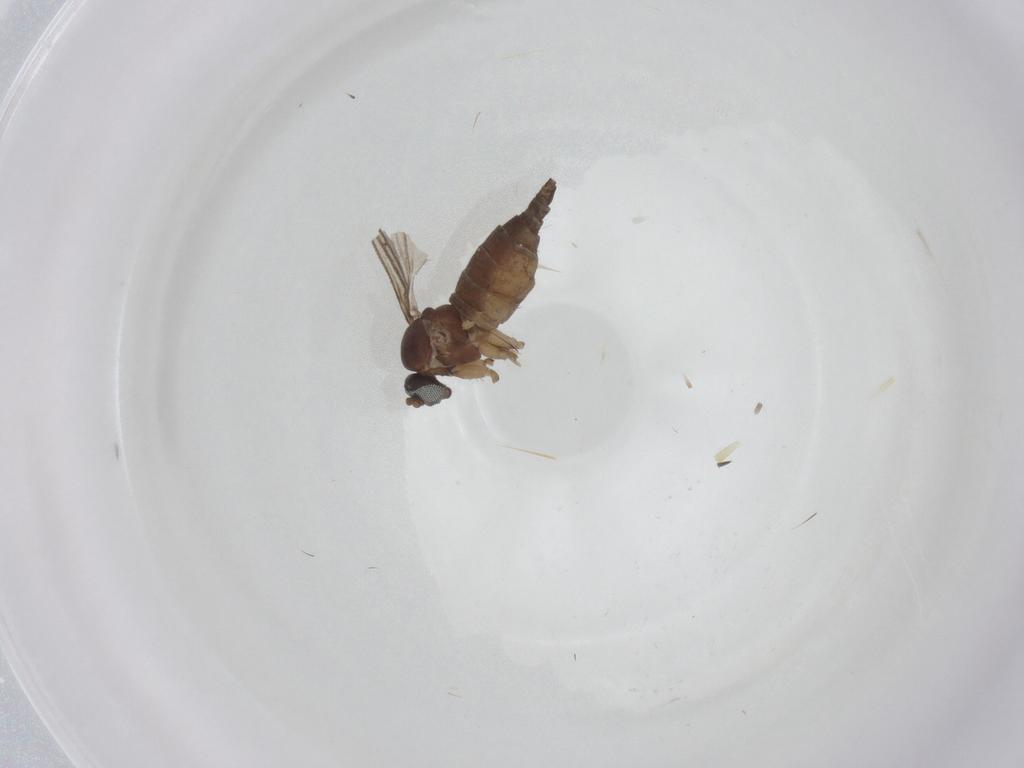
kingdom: Animalia
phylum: Arthropoda
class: Insecta
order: Diptera
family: Sciaridae
